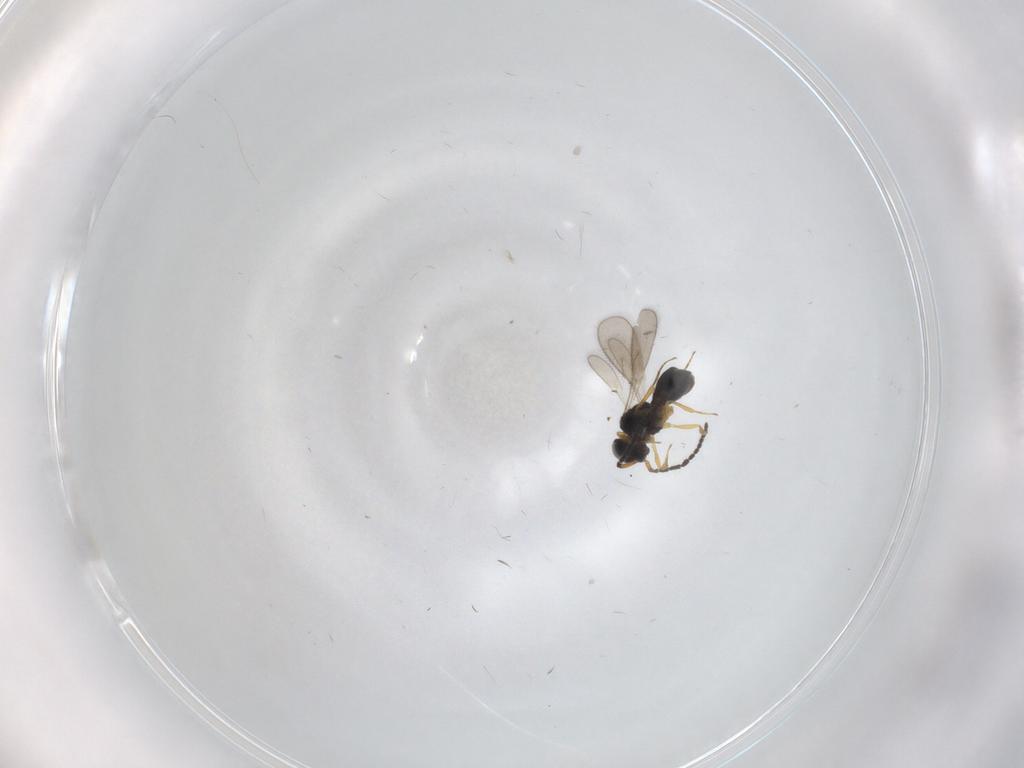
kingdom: Animalia
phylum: Arthropoda
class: Insecta
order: Hymenoptera
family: Scelionidae
